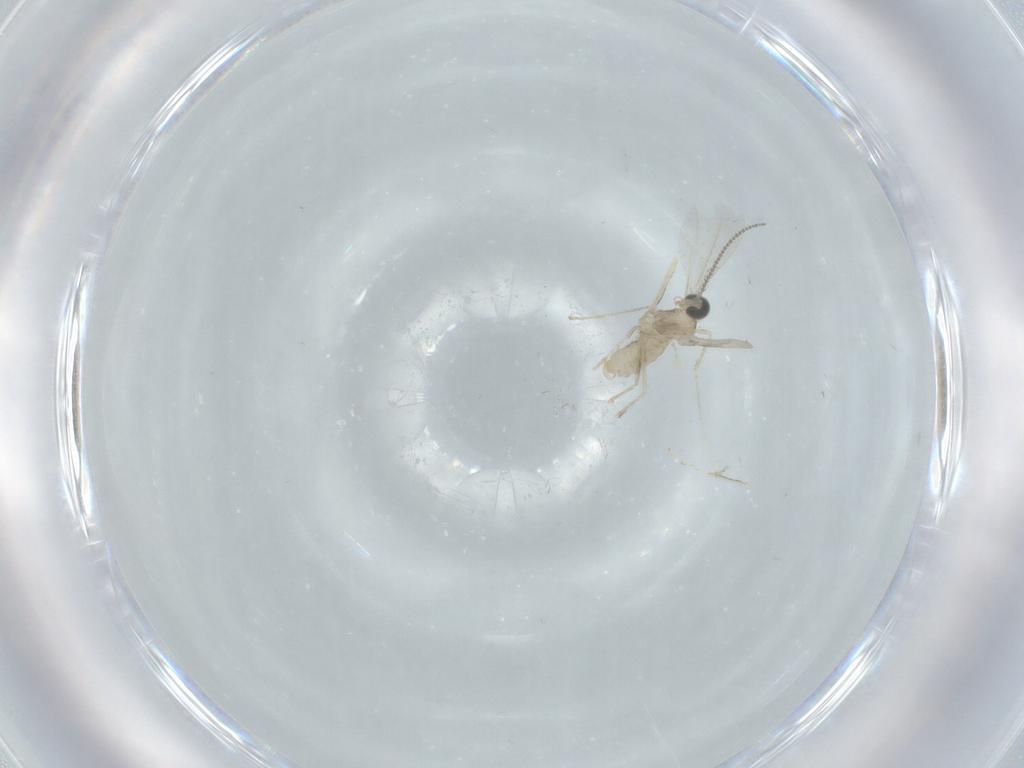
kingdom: Animalia
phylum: Arthropoda
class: Insecta
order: Diptera
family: Cecidomyiidae
